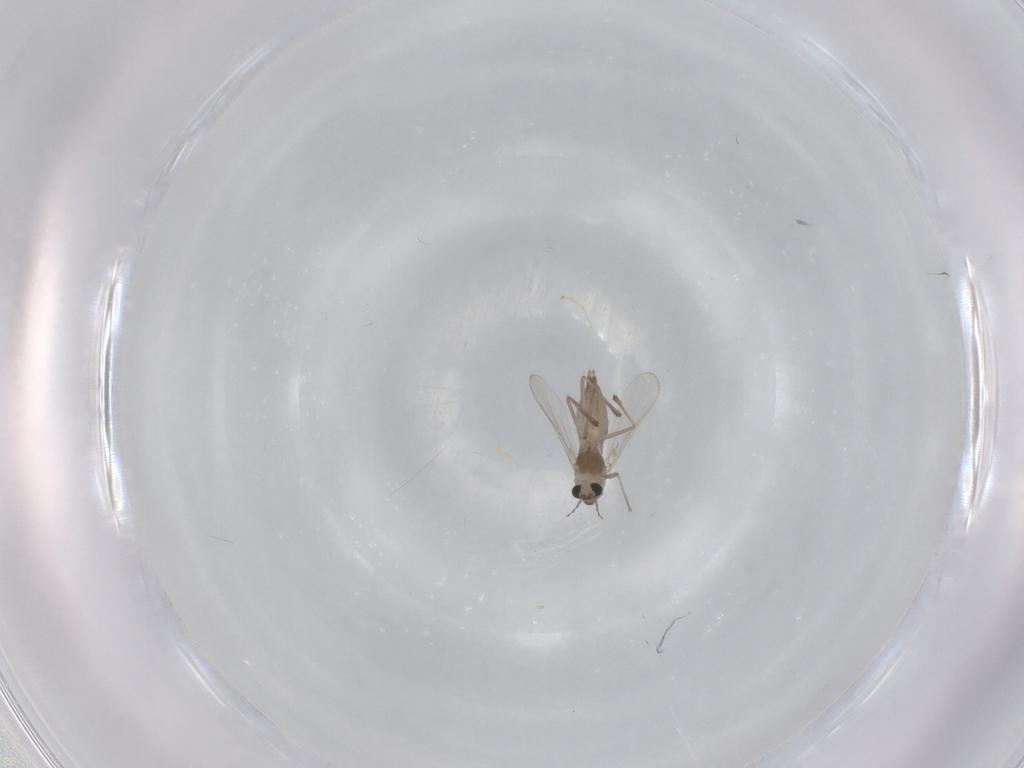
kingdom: Animalia
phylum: Arthropoda
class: Insecta
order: Diptera
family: Chironomidae
